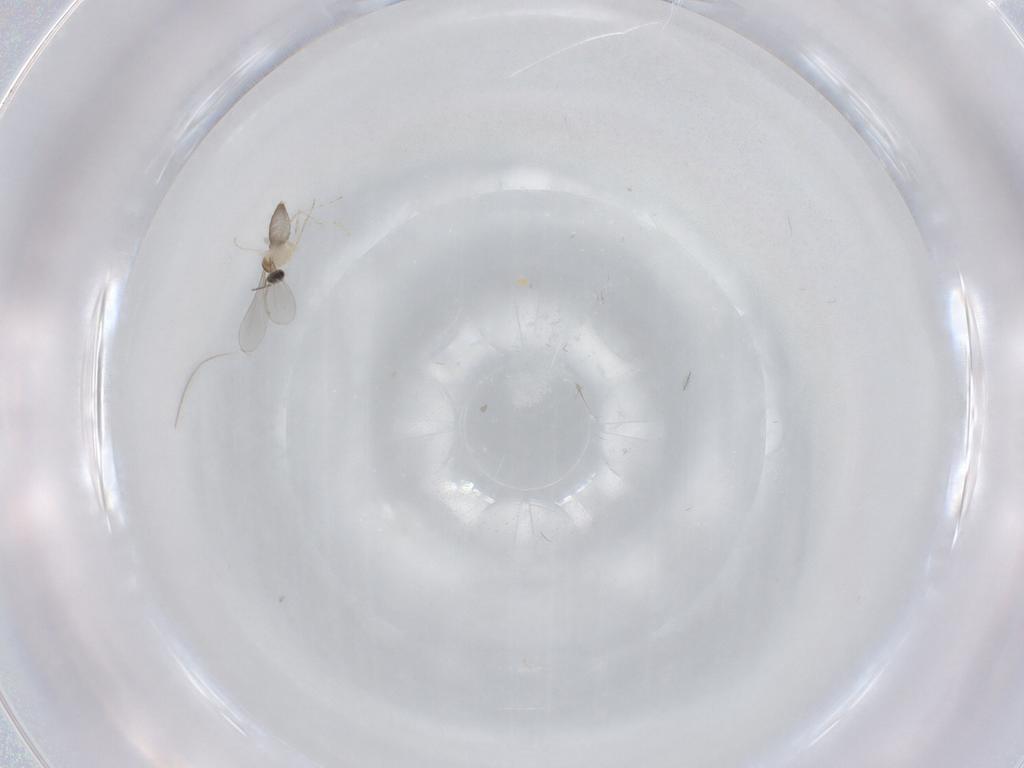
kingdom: Animalia
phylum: Arthropoda
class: Insecta
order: Diptera
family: Cecidomyiidae
